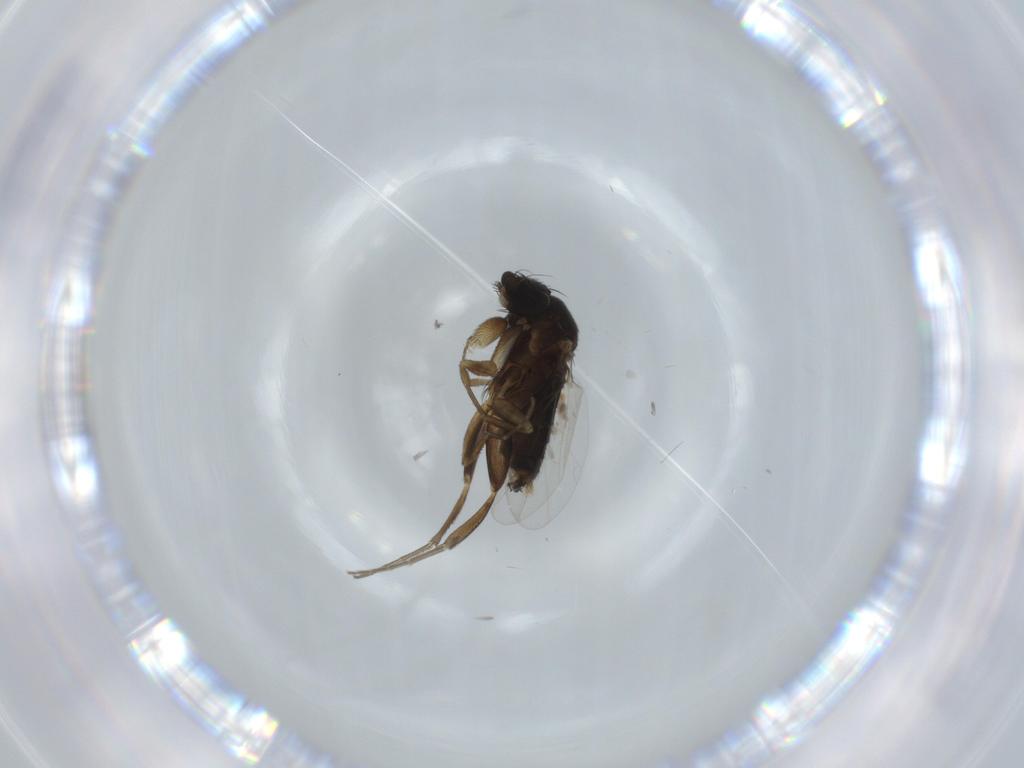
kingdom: Animalia
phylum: Arthropoda
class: Insecta
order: Diptera
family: Phoridae
